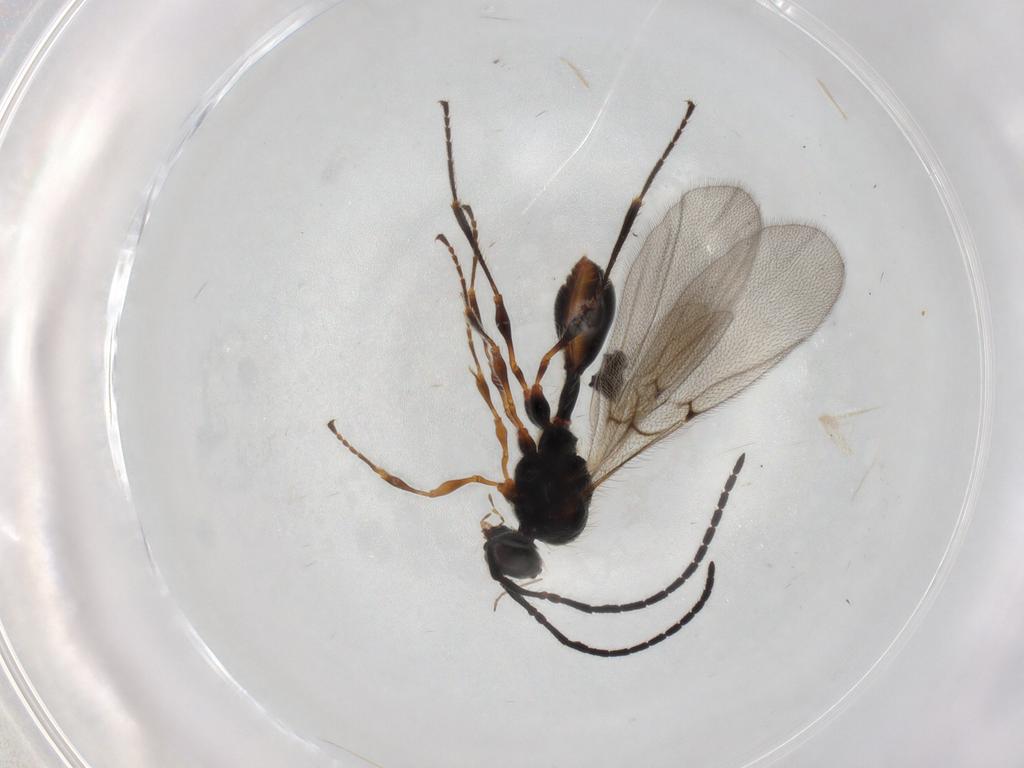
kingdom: Animalia
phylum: Arthropoda
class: Insecta
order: Hymenoptera
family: Diapriidae
